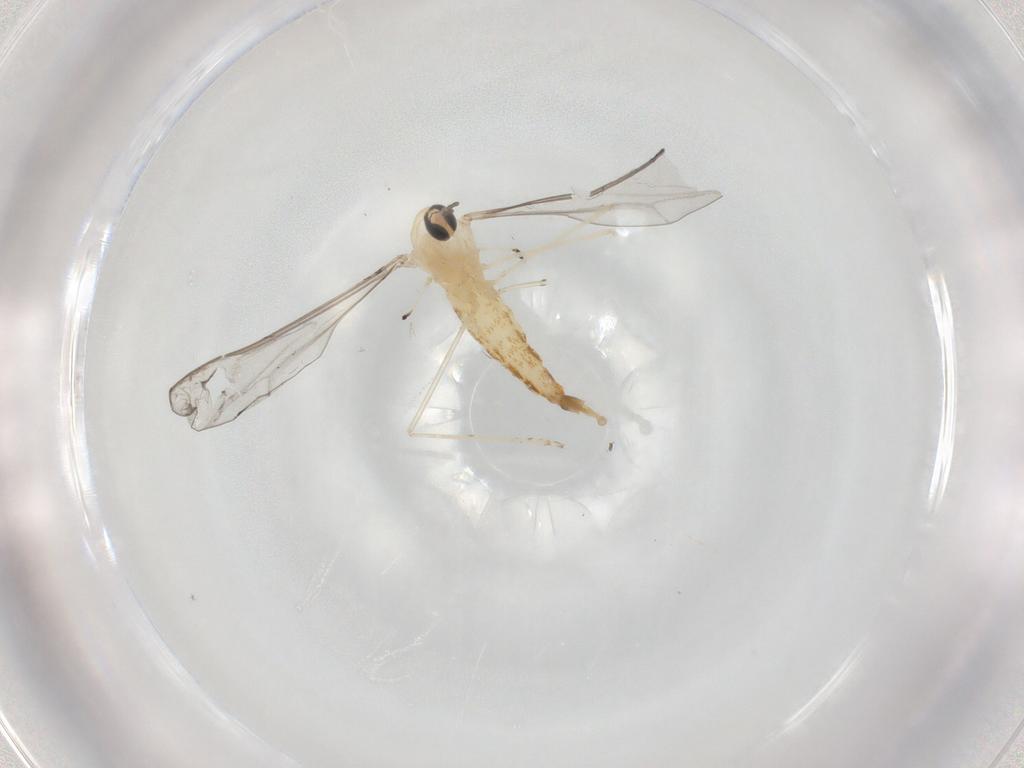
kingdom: Animalia
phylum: Arthropoda
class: Insecta
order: Diptera
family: Cecidomyiidae
